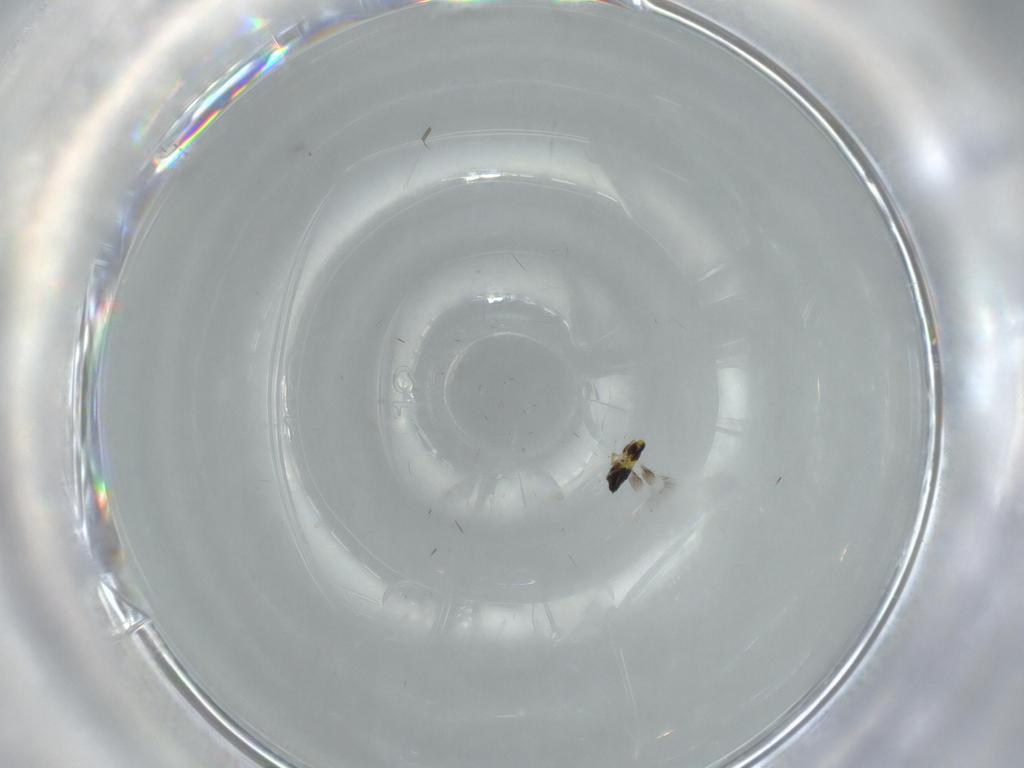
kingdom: Animalia
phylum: Arthropoda
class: Insecta
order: Hymenoptera
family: Signiphoridae
